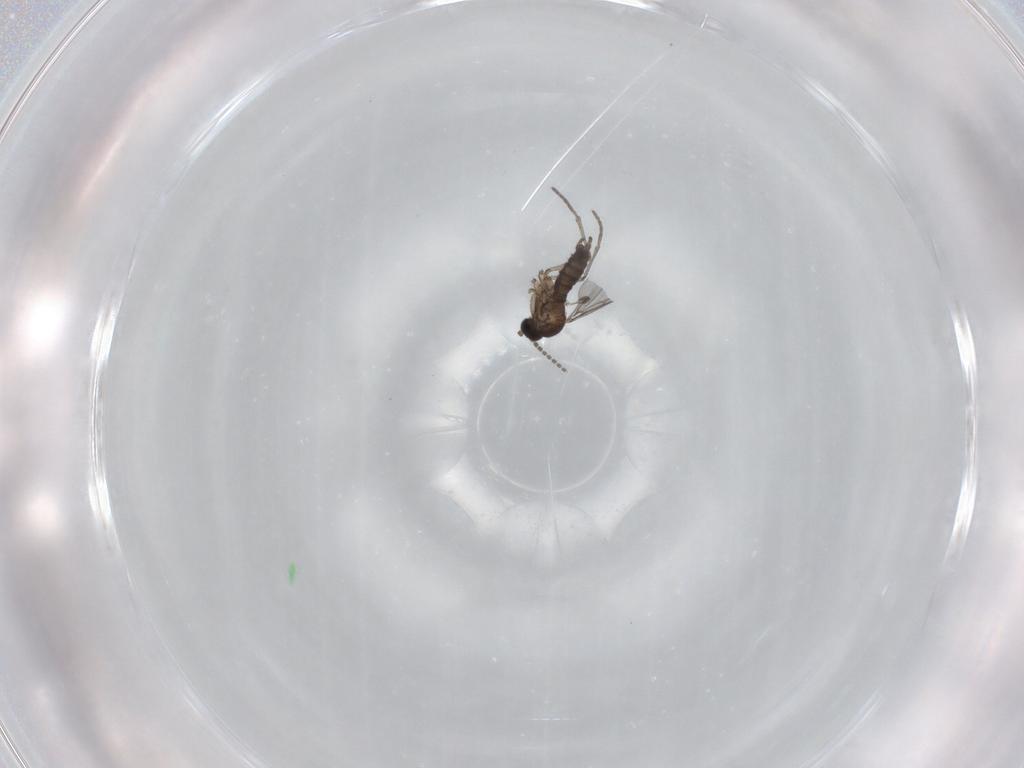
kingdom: Animalia
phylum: Arthropoda
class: Insecta
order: Diptera
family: Sciaridae
